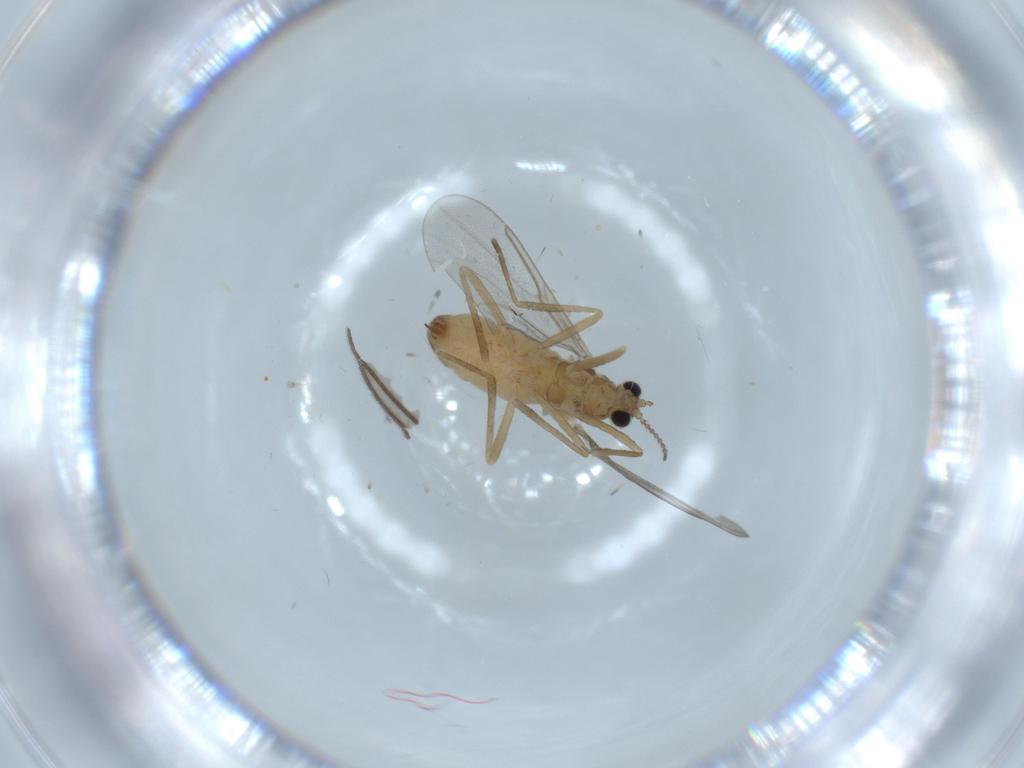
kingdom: Animalia
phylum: Arthropoda
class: Insecta
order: Diptera
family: Sciaridae
